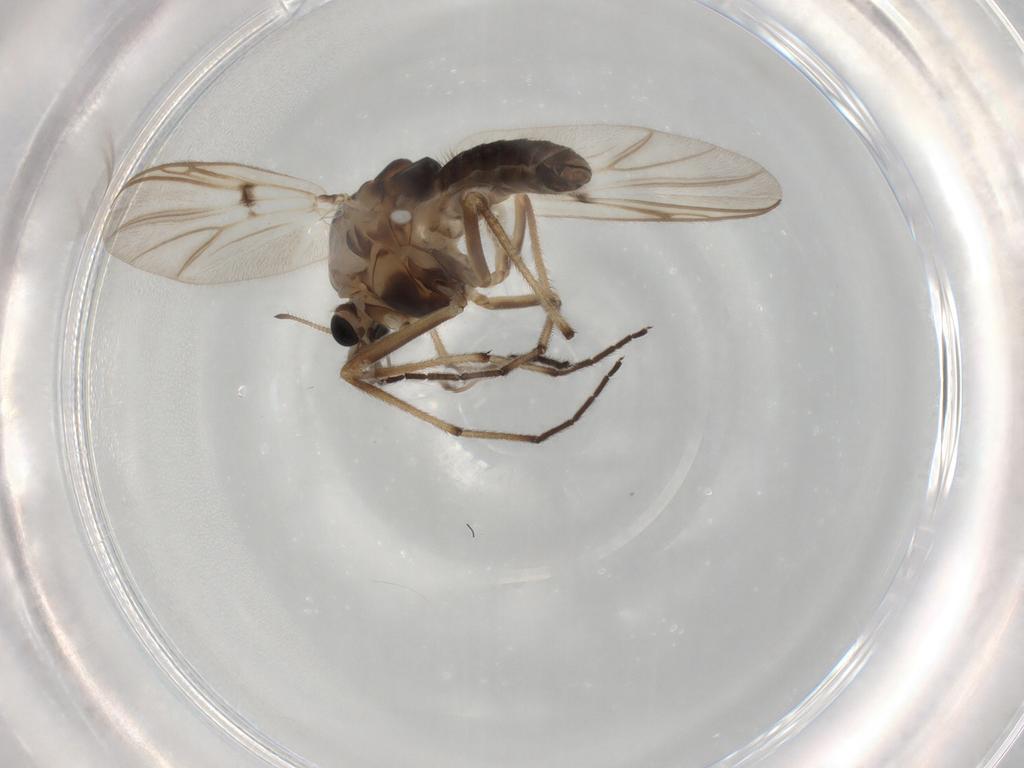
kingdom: Animalia
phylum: Arthropoda
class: Insecta
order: Diptera
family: Chironomidae
